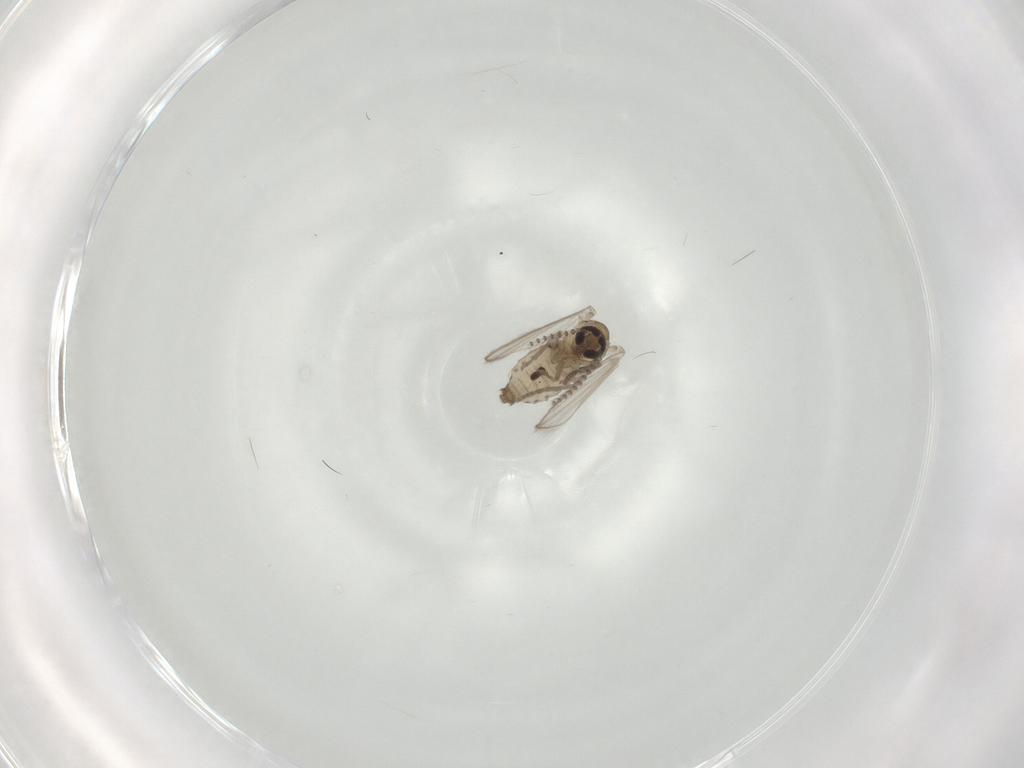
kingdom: Animalia
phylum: Arthropoda
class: Insecta
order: Diptera
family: Psychodidae
